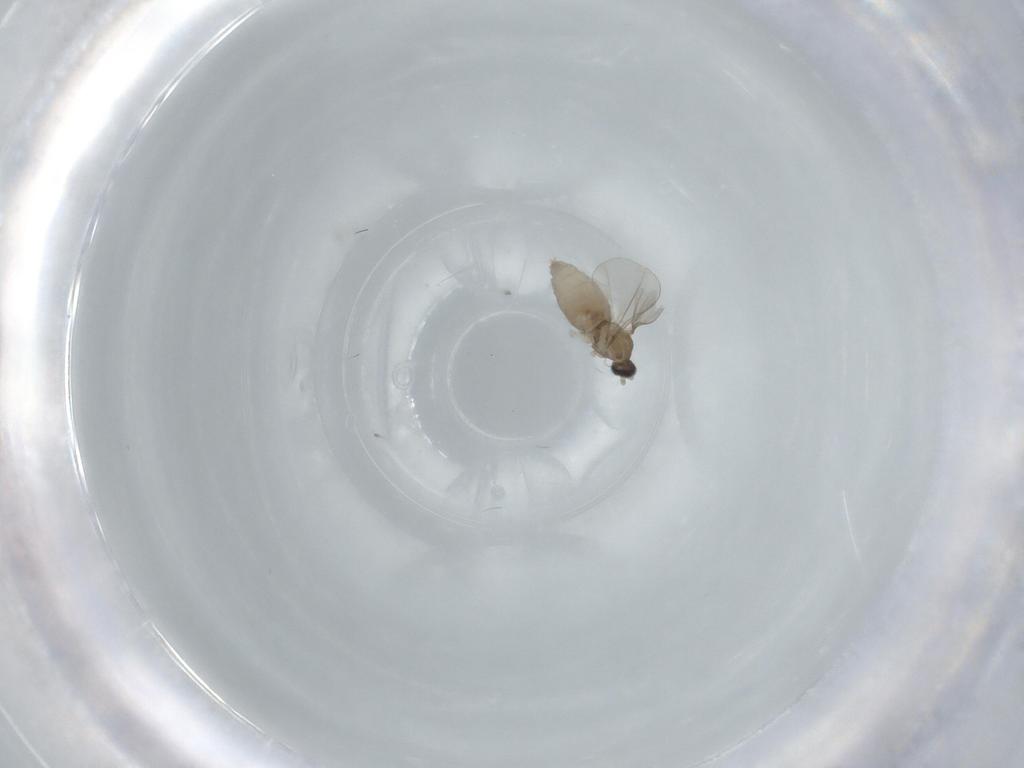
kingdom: Animalia
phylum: Arthropoda
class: Insecta
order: Diptera
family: Cecidomyiidae
